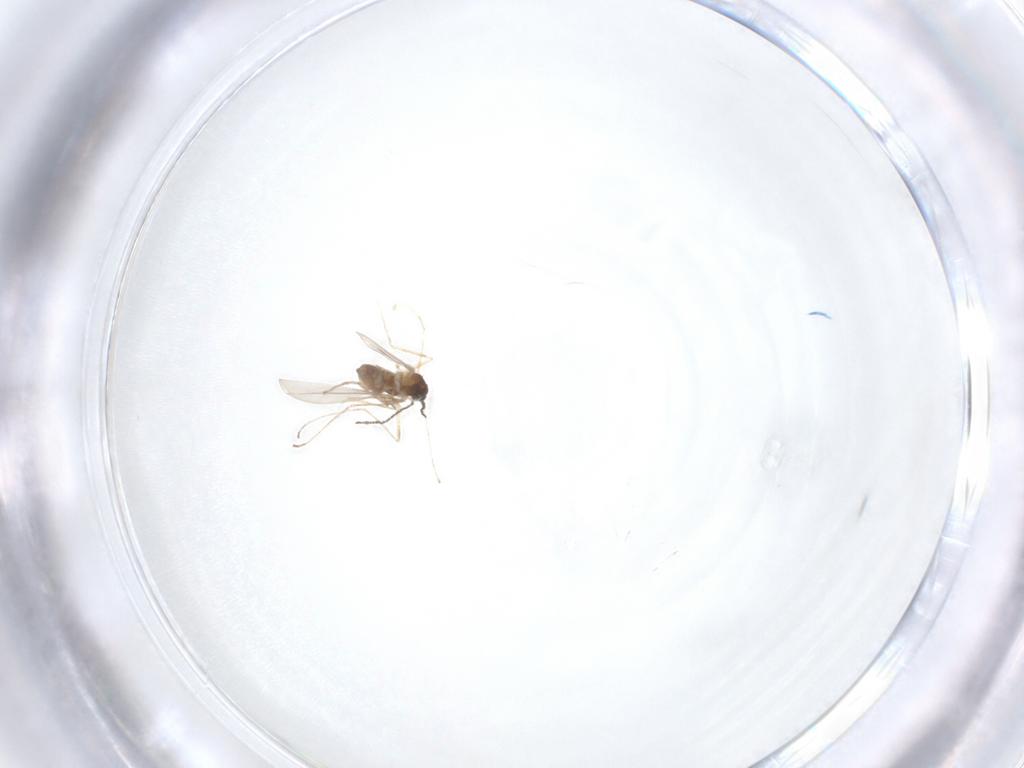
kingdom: Animalia
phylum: Arthropoda
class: Insecta
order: Diptera
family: Cecidomyiidae
